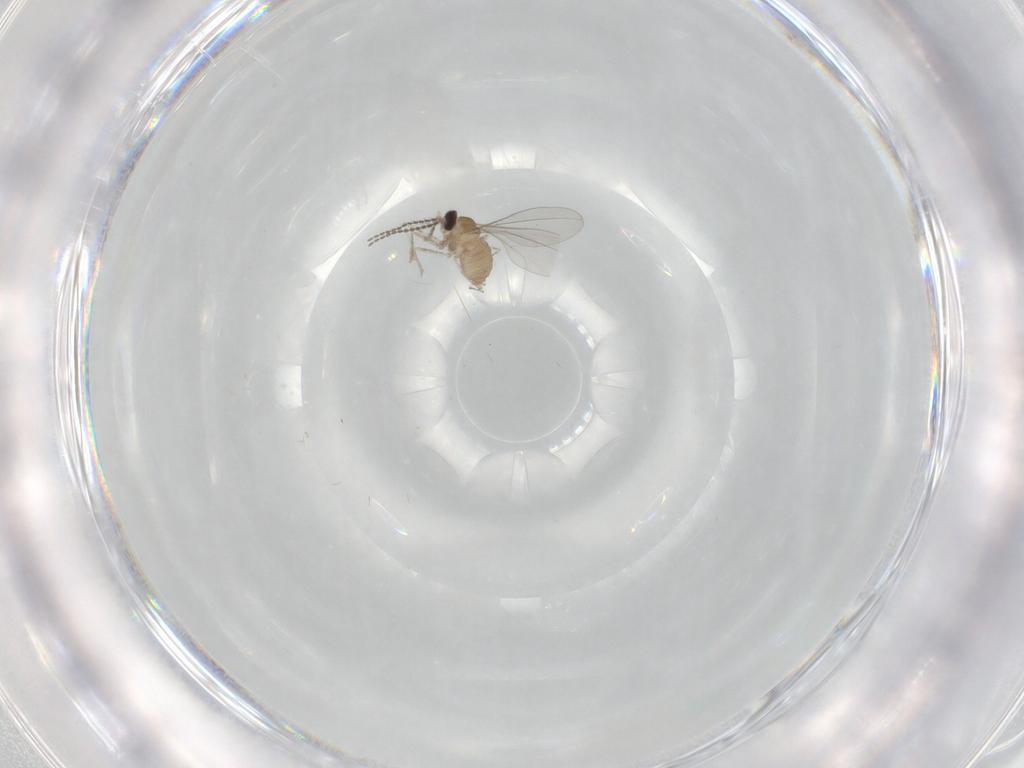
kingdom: Animalia
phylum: Arthropoda
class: Insecta
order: Diptera
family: Cecidomyiidae
